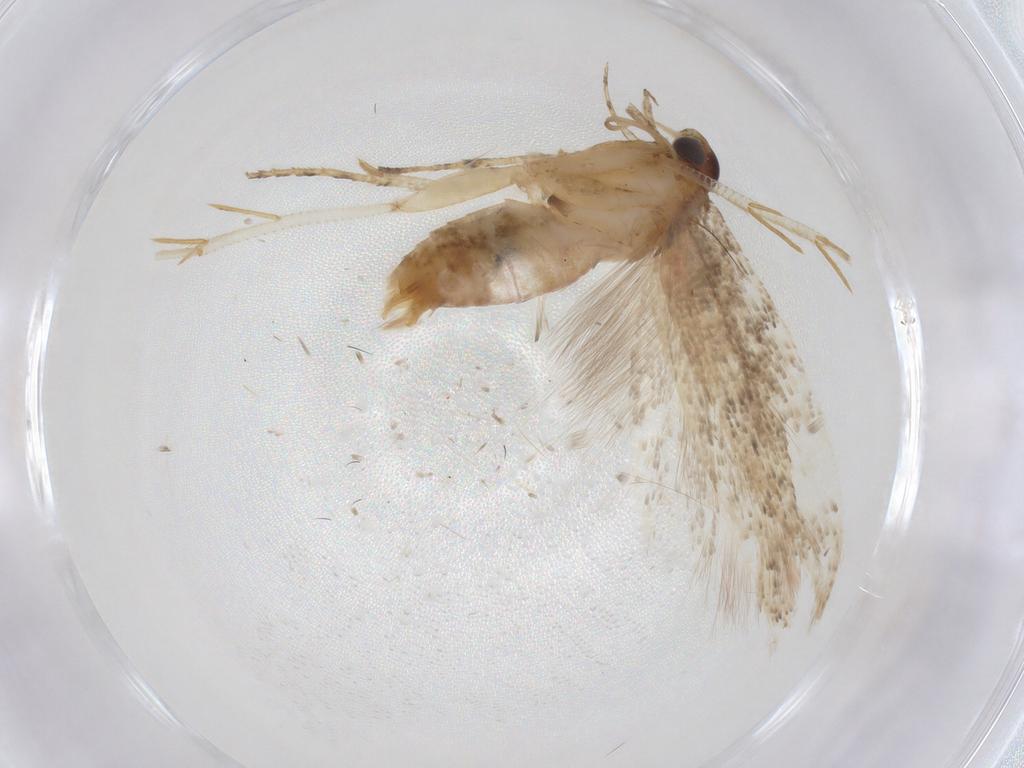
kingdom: Animalia
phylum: Arthropoda
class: Insecta
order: Lepidoptera
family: Gelechiidae
